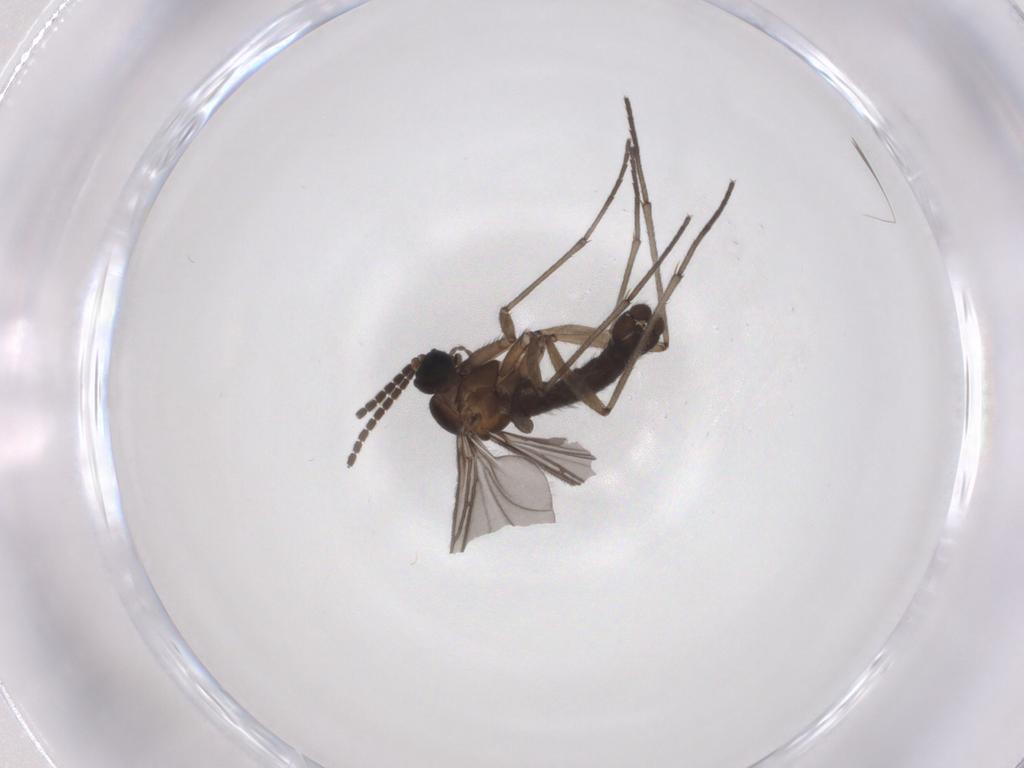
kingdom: Animalia
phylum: Arthropoda
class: Insecta
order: Diptera
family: Sciaridae
